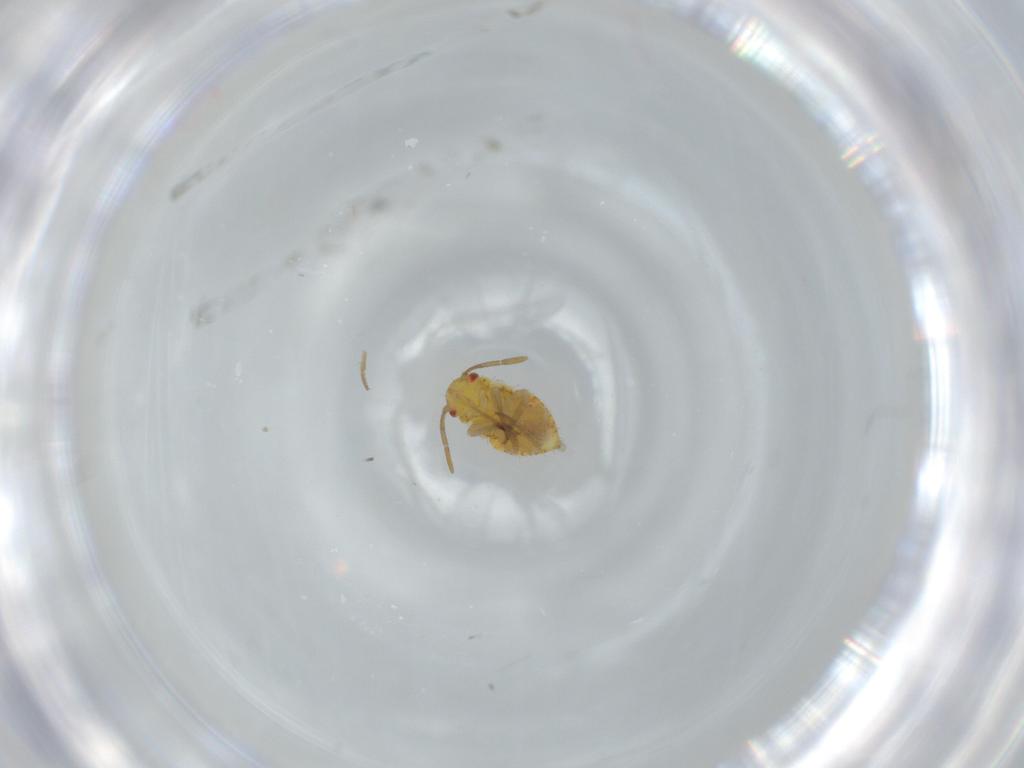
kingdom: Animalia
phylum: Arthropoda
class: Insecta
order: Hemiptera
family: Miridae
